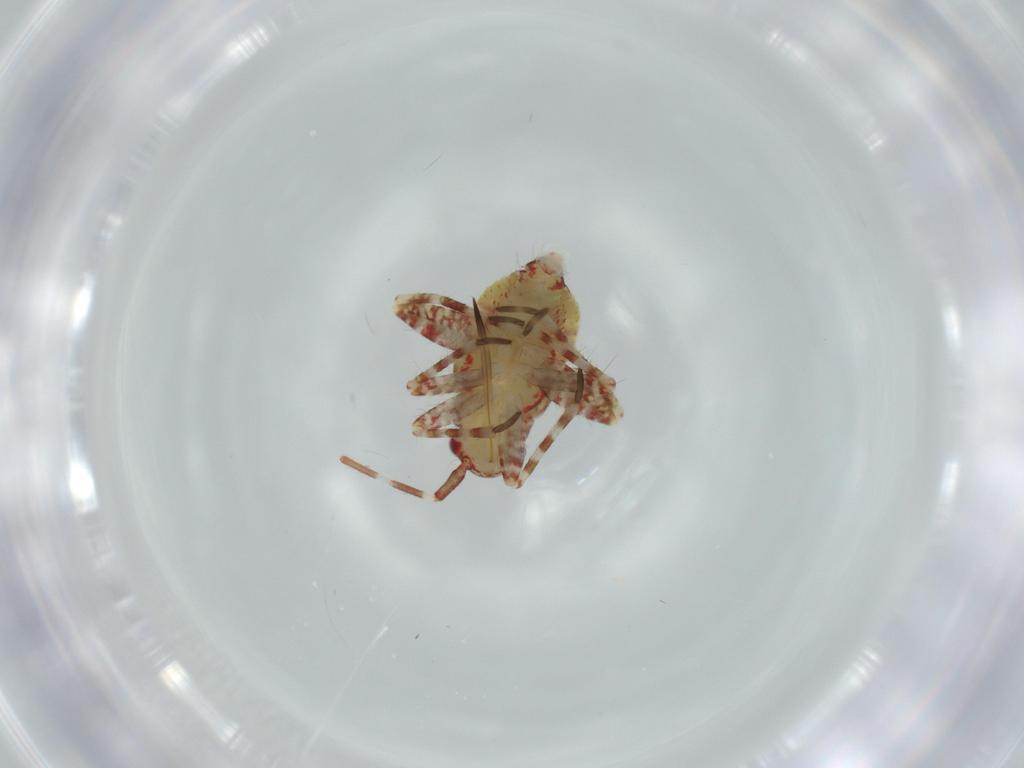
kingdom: Animalia
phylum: Arthropoda
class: Insecta
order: Hemiptera
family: Miridae
